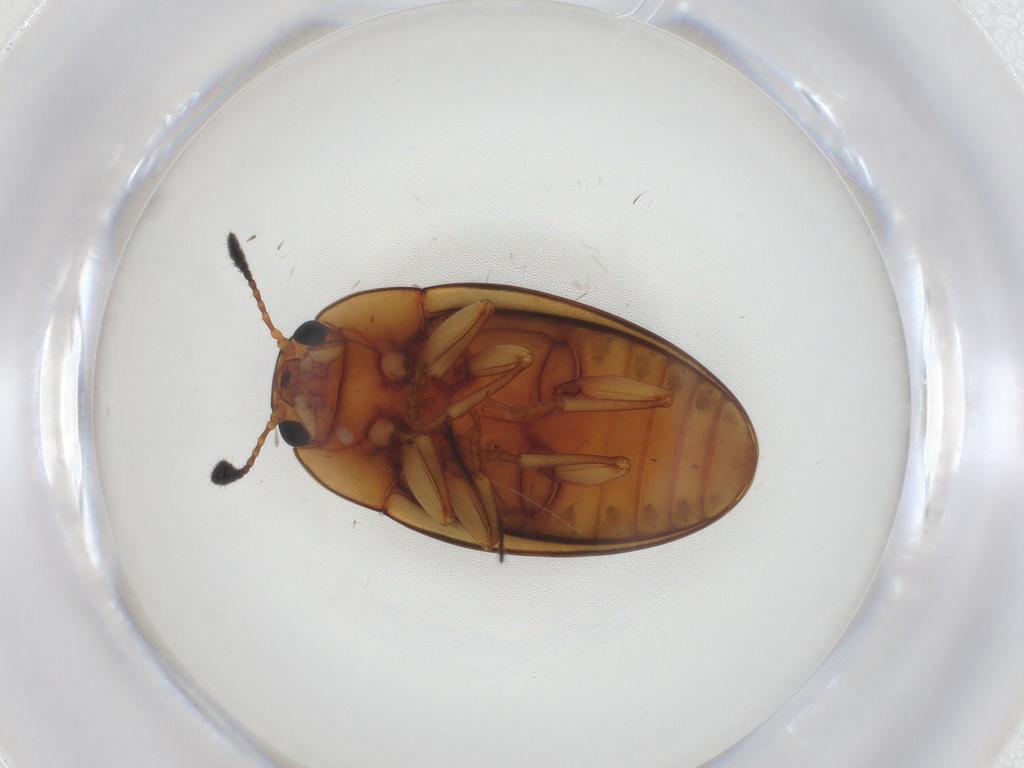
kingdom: Animalia
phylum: Arthropoda
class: Insecta
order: Coleoptera
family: Erotylidae
